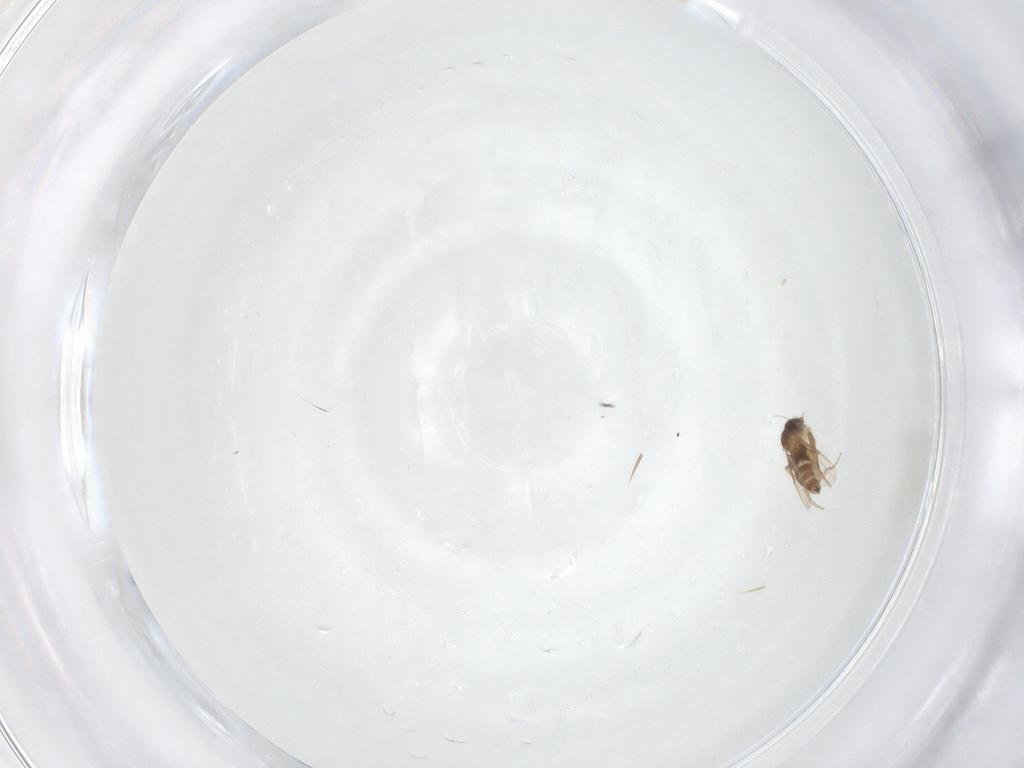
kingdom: Animalia
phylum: Arthropoda
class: Insecta
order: Diptera
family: Phoridae
